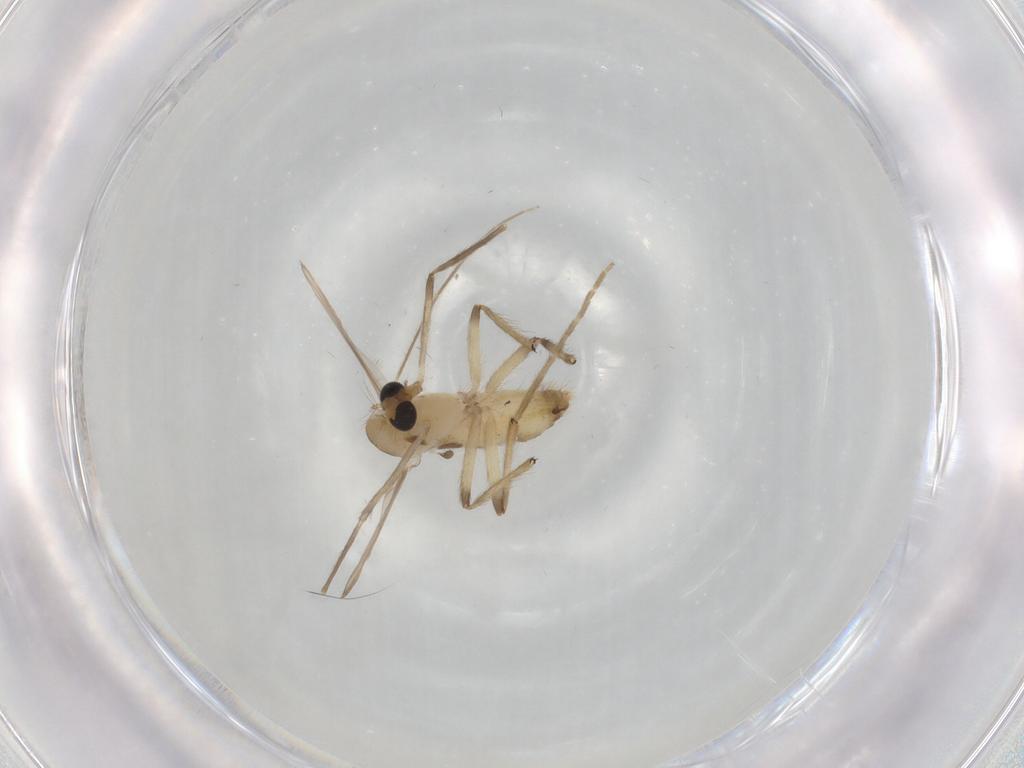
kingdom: Animalia
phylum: Arthropoda
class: Insecta
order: Diptera
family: Chironomidae
